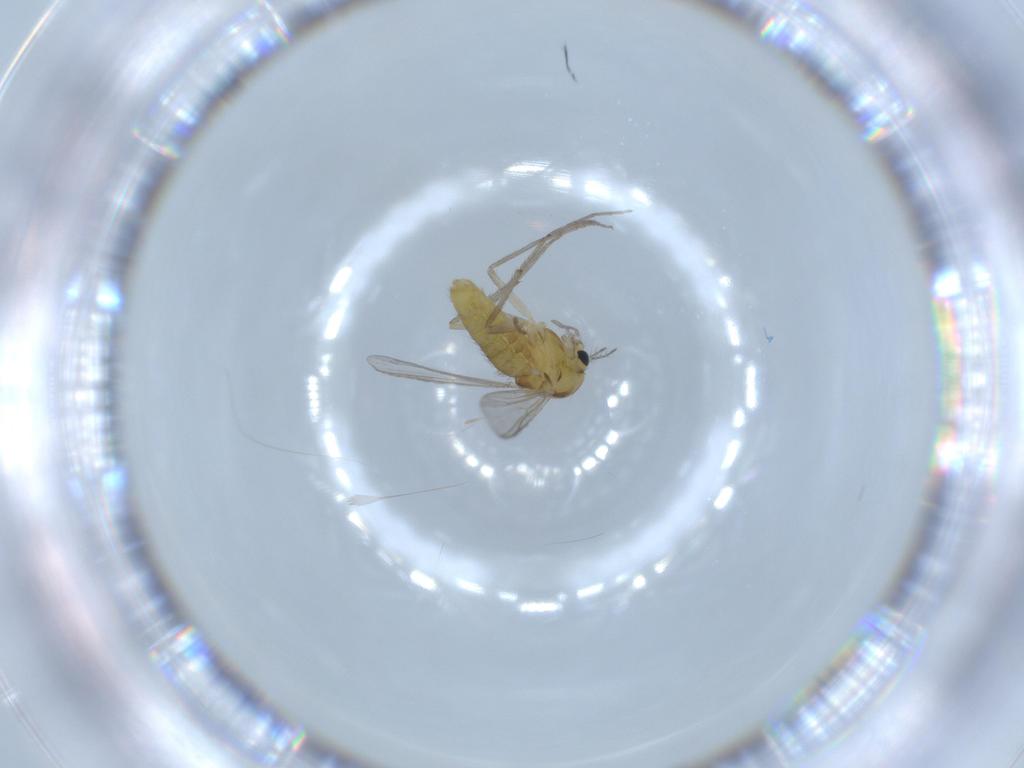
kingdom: Animalia
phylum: Arthropoda
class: Insecta
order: Diptera
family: Chironomidae
